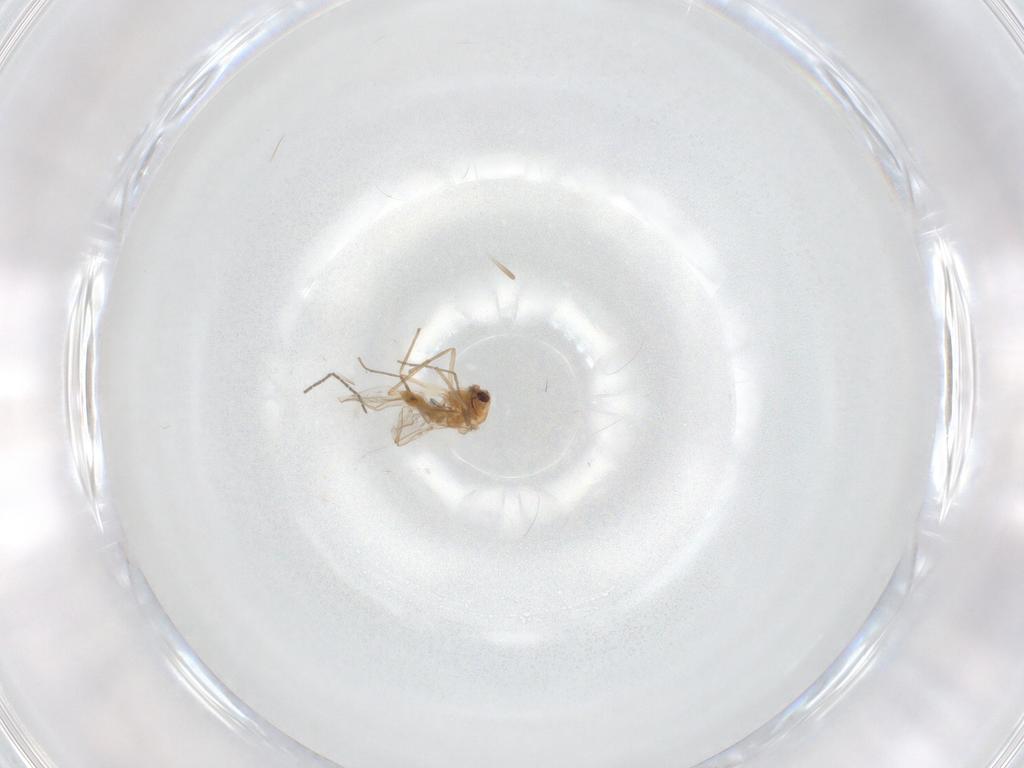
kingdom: Animalia
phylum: Arthropoda
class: Insecta
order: Diptera
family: Chironomidae
